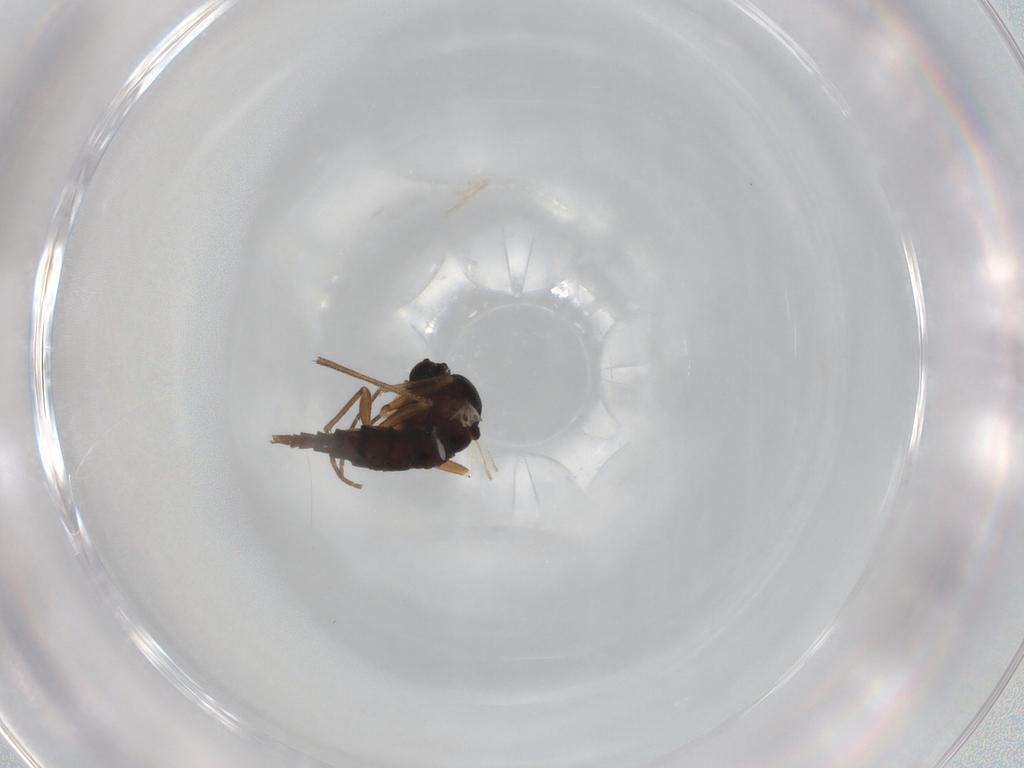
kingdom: Animalia
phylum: Arthropoda
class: Insecta
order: Diptera
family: Sciaridae
